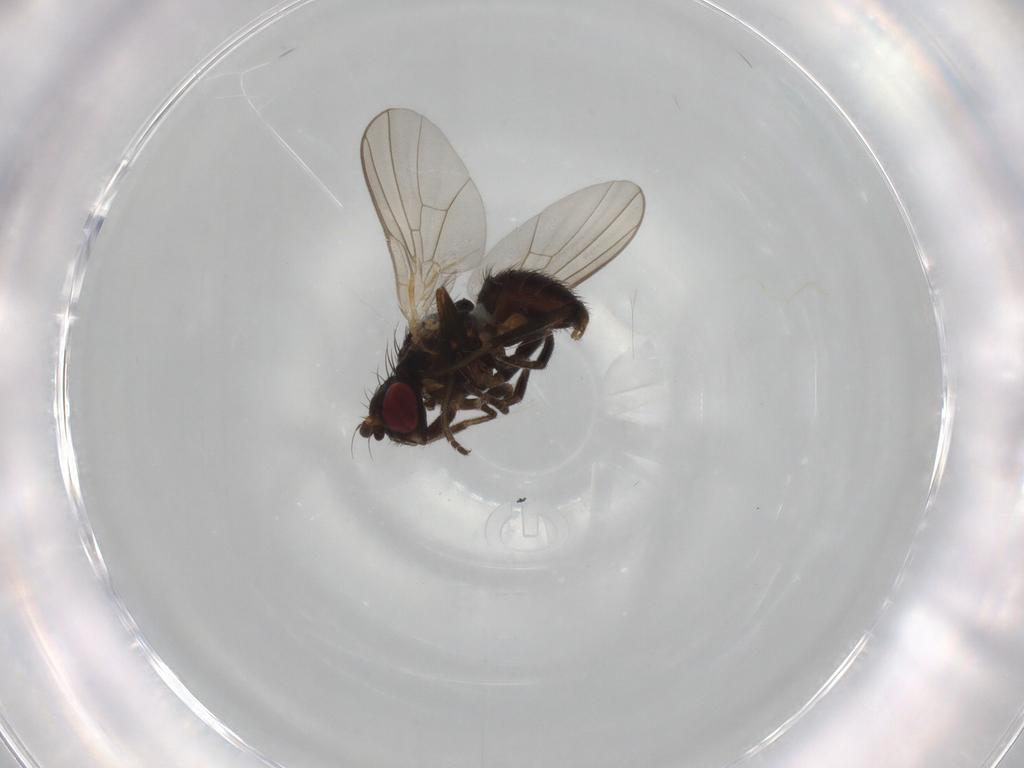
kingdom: Animalia
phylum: Arthropoda
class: Insecta
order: Diptera
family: Agromyzidae
